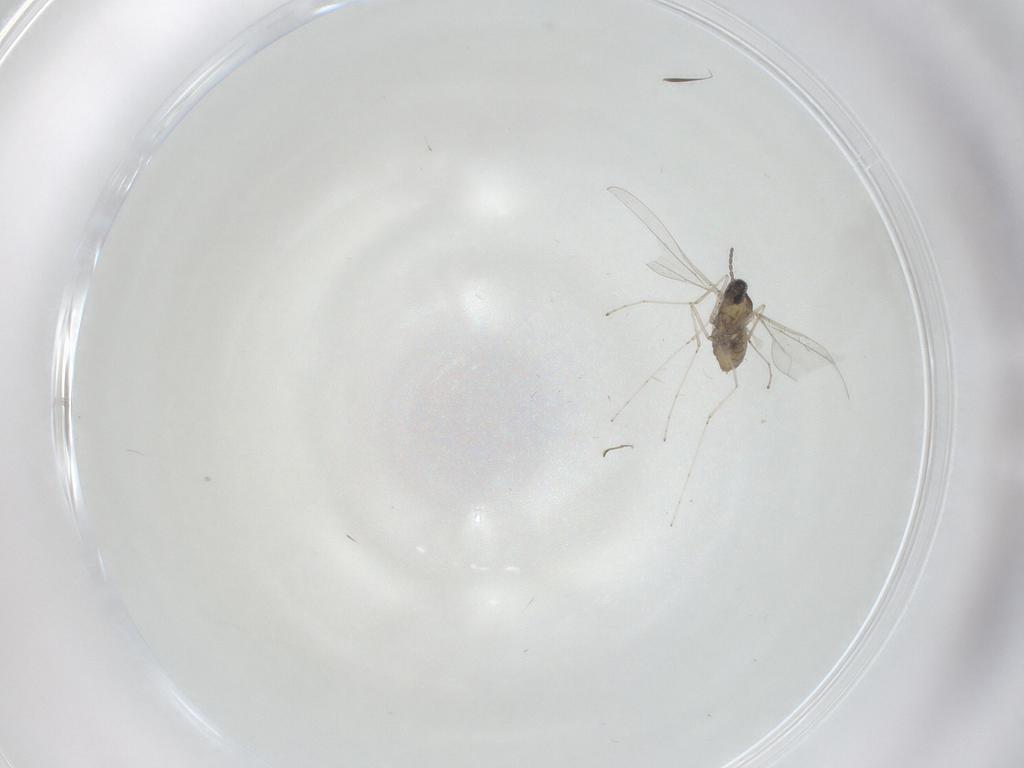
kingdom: Animalia
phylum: Arthropoda
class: Insecta
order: Diptera
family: Cecidomyiidae
